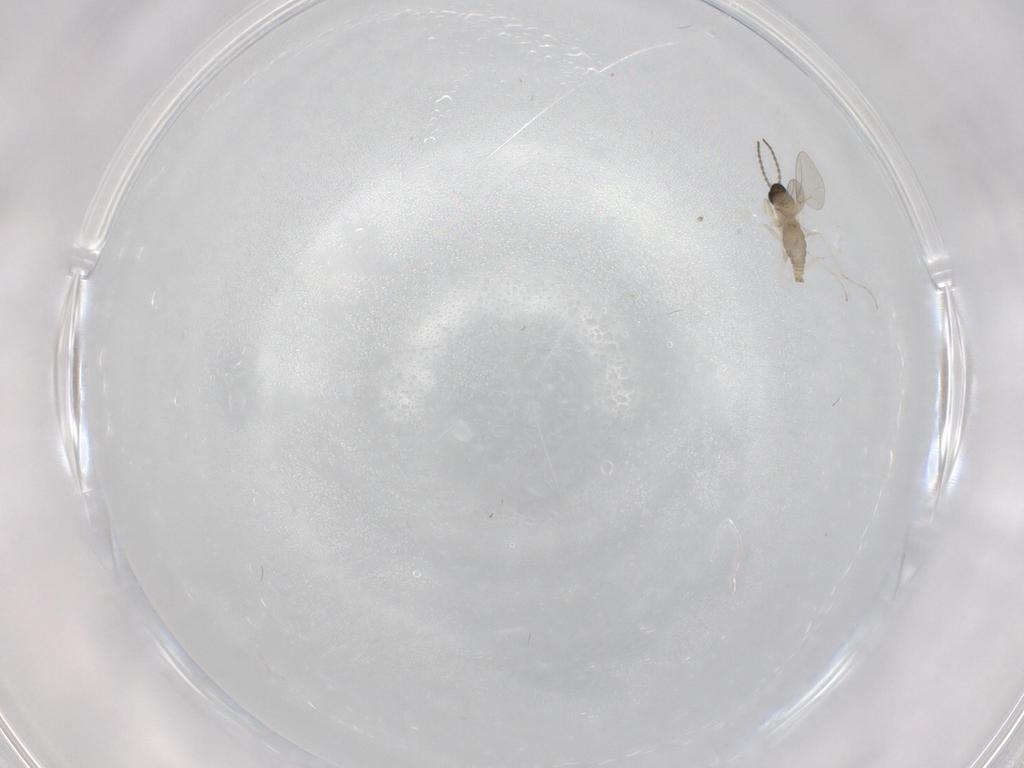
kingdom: Animalia
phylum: Arthropoda
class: Insecta
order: Diptera
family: Cecidomyiidae
